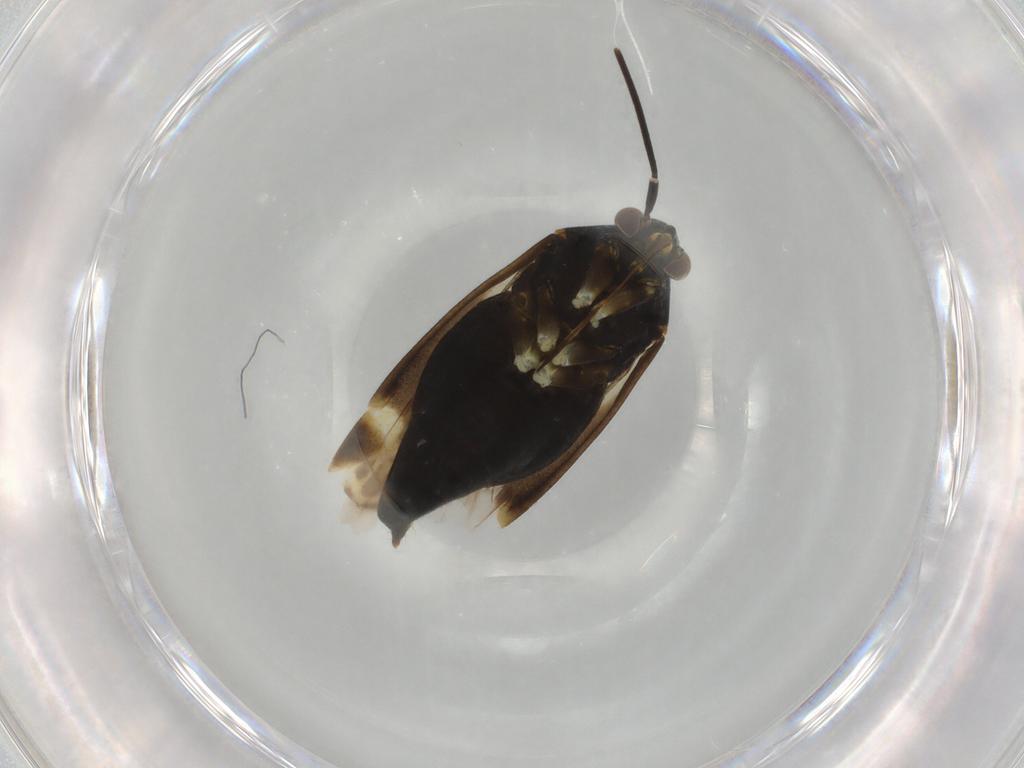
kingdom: Animalia
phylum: Arthropoda
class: Insecta
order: Hemiptera
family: Miridae
